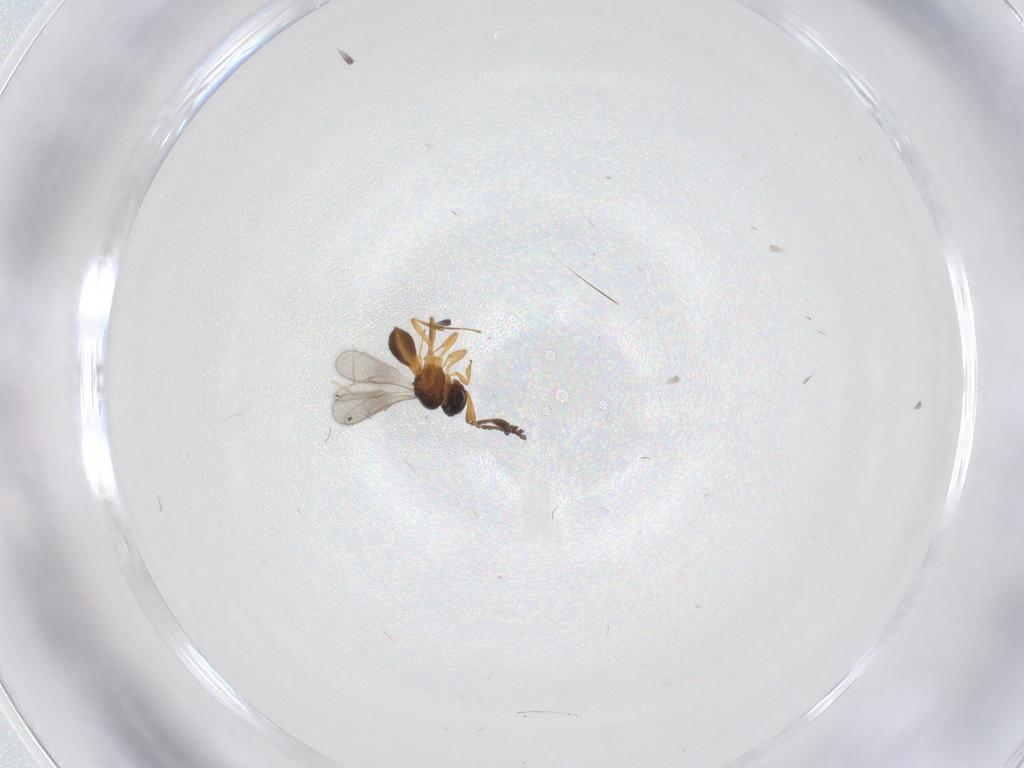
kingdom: Animalia
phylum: Arthropoda
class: Insecta
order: Hymenoptera
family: Scelionidae
